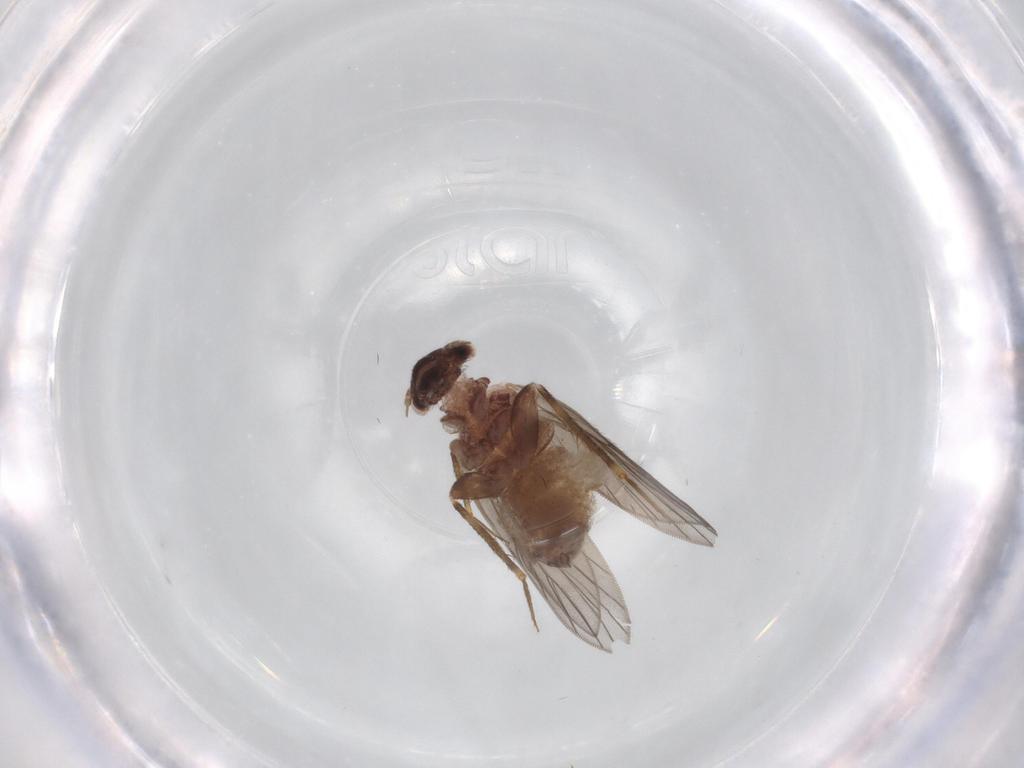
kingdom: Animalia
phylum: Arthropoda
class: Insecta
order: Psocodea
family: Lepidopsocidae
